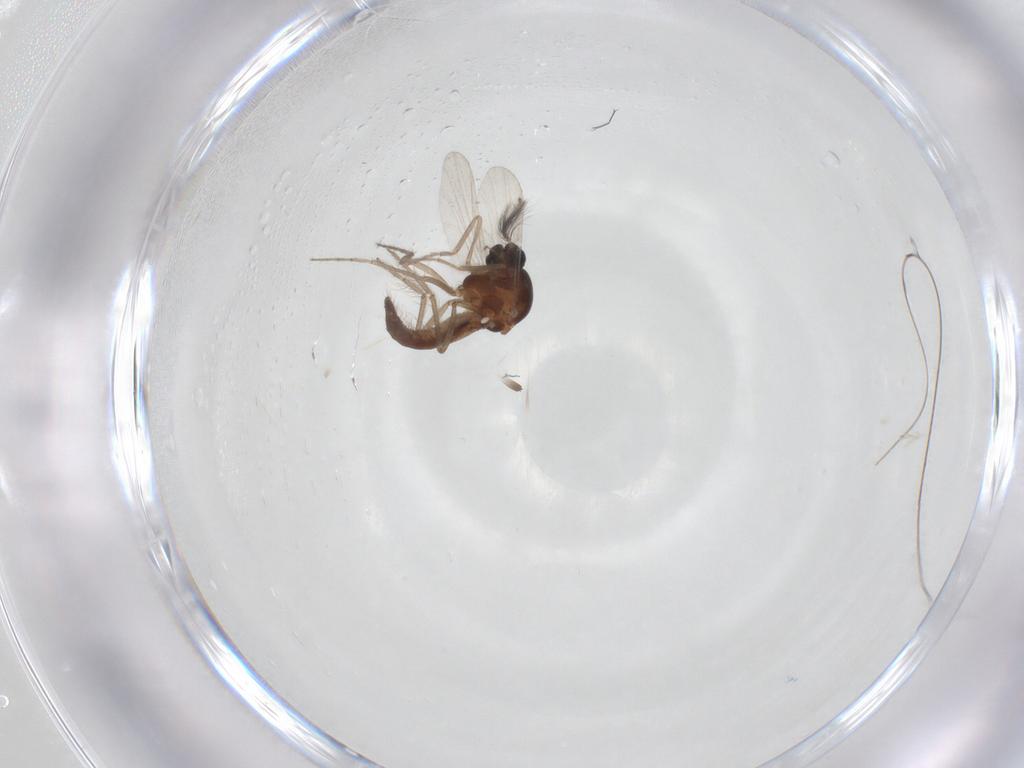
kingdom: Animalia
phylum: Arthropoda
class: Insecta
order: Diptera
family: Ceratopogonidae
